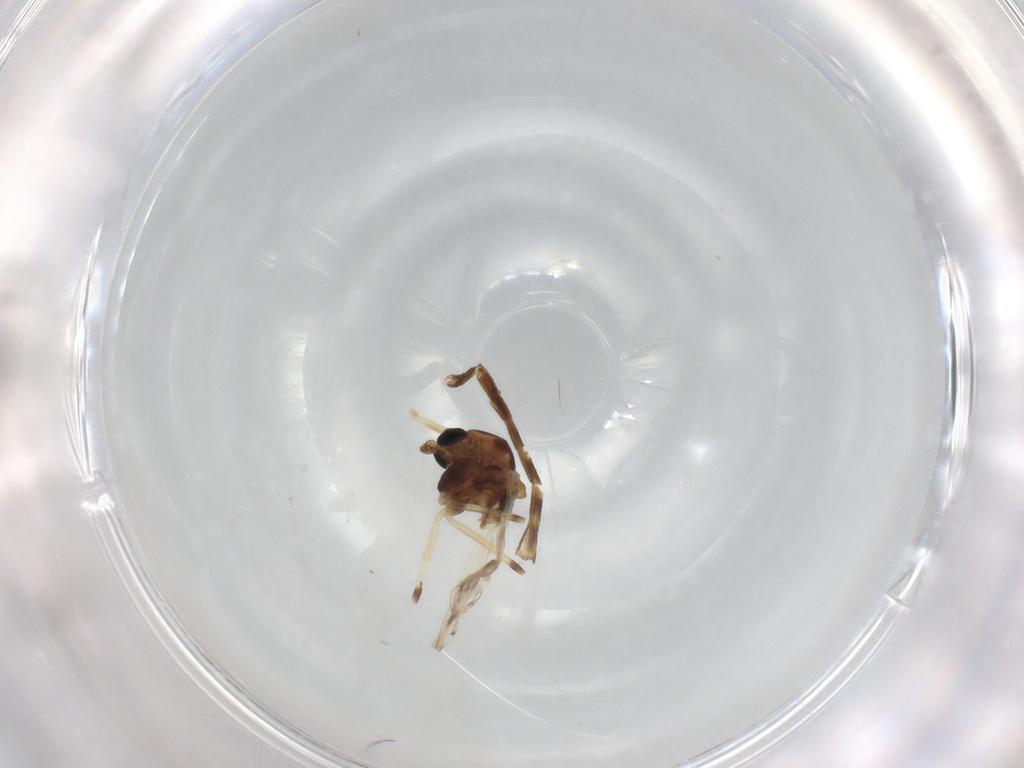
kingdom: Animalia
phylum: Arthropoda
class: Insecta
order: Diptera
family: Chironomidae
